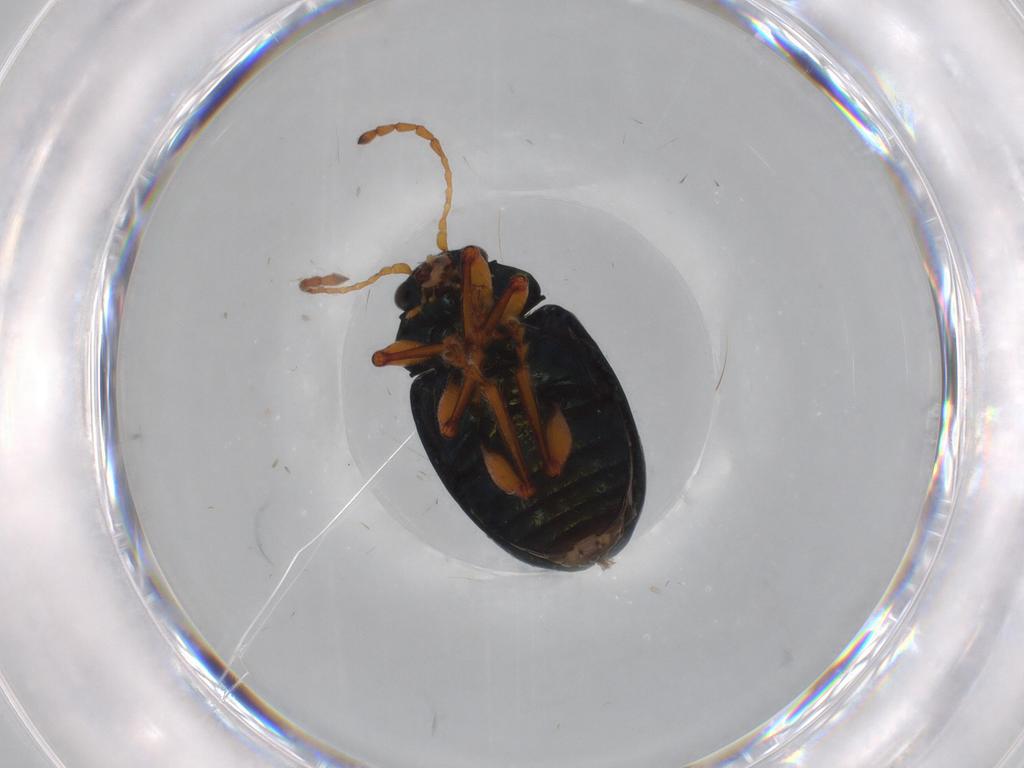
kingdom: Animalia
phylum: Arthropoda
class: Insecta
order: Coleoptera
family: Chrysomelidae
